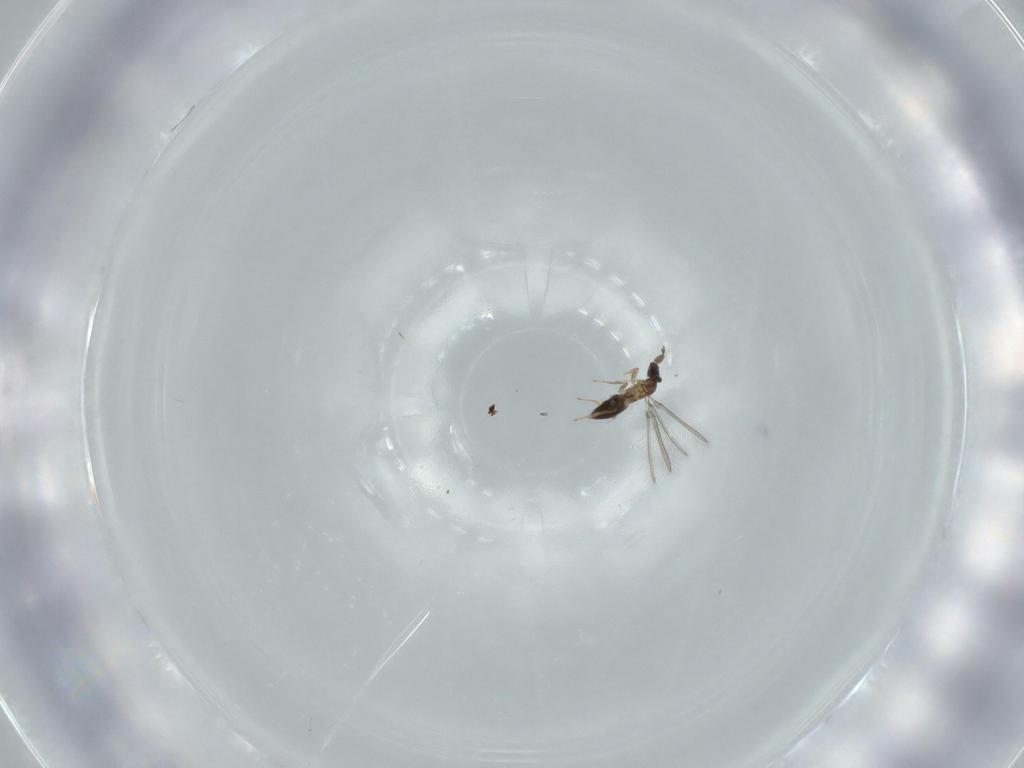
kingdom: Animalia
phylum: Arthropoda
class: Insecta
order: Hymenoptera
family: Mymaridae
